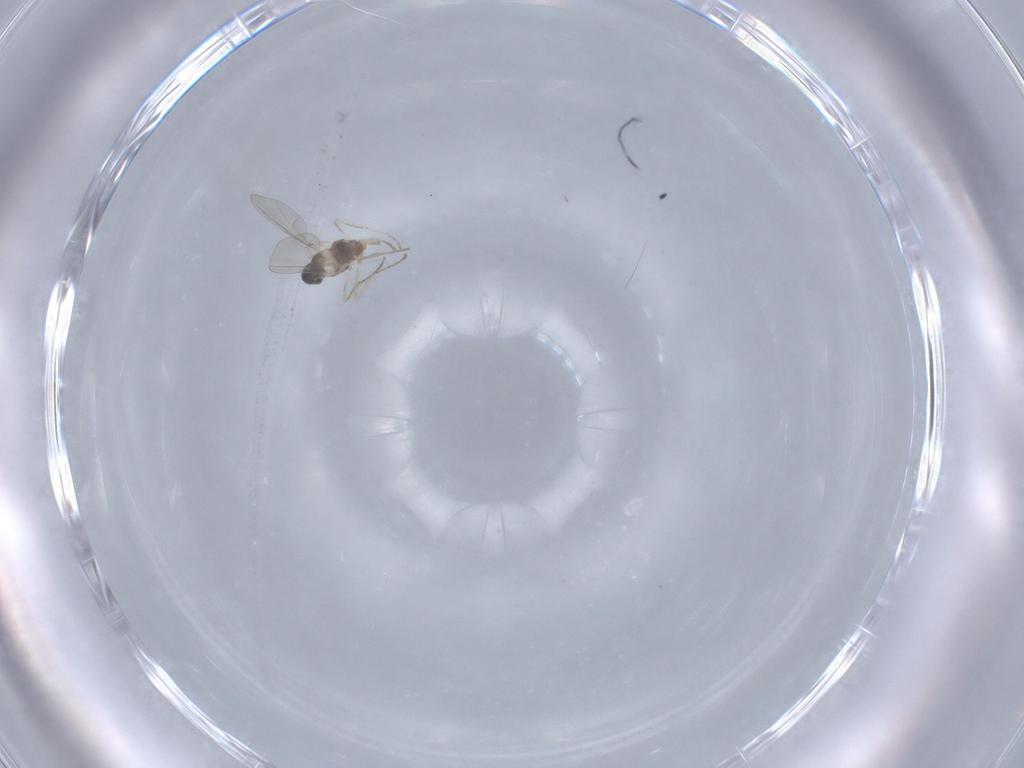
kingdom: Animalia
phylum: Arthropoda
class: Insecta
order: Diptera
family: Cecidomyiidae
